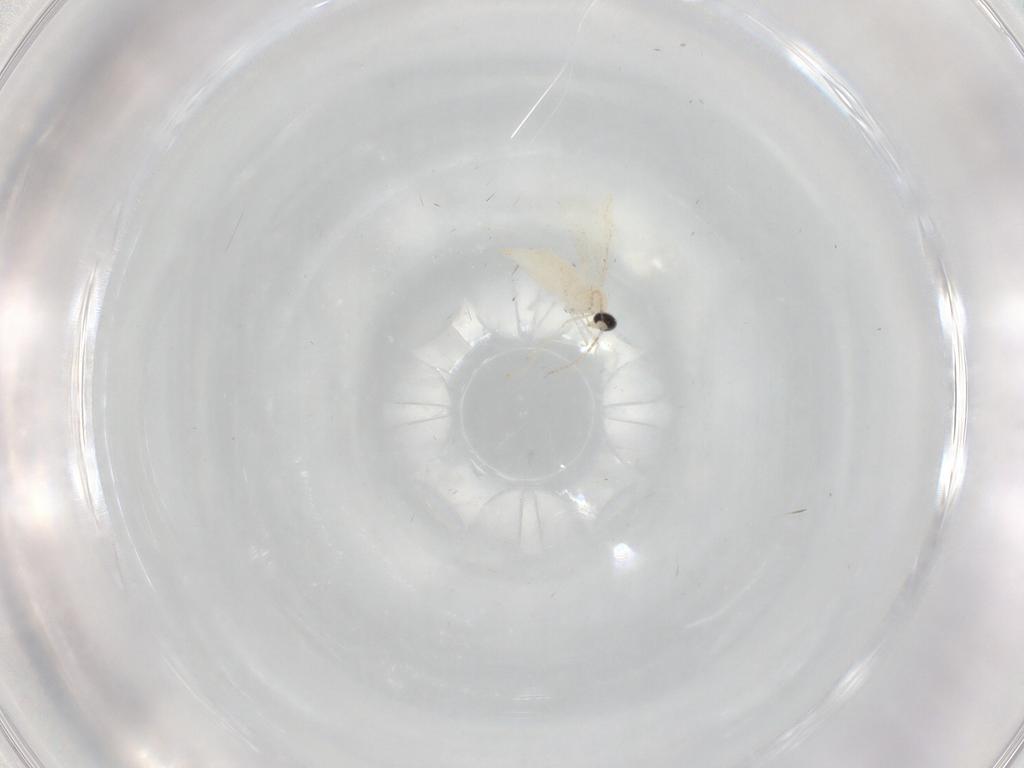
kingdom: Animalia
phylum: Arthropoda
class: Insecta
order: Diptera
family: Cecidomyiidae
